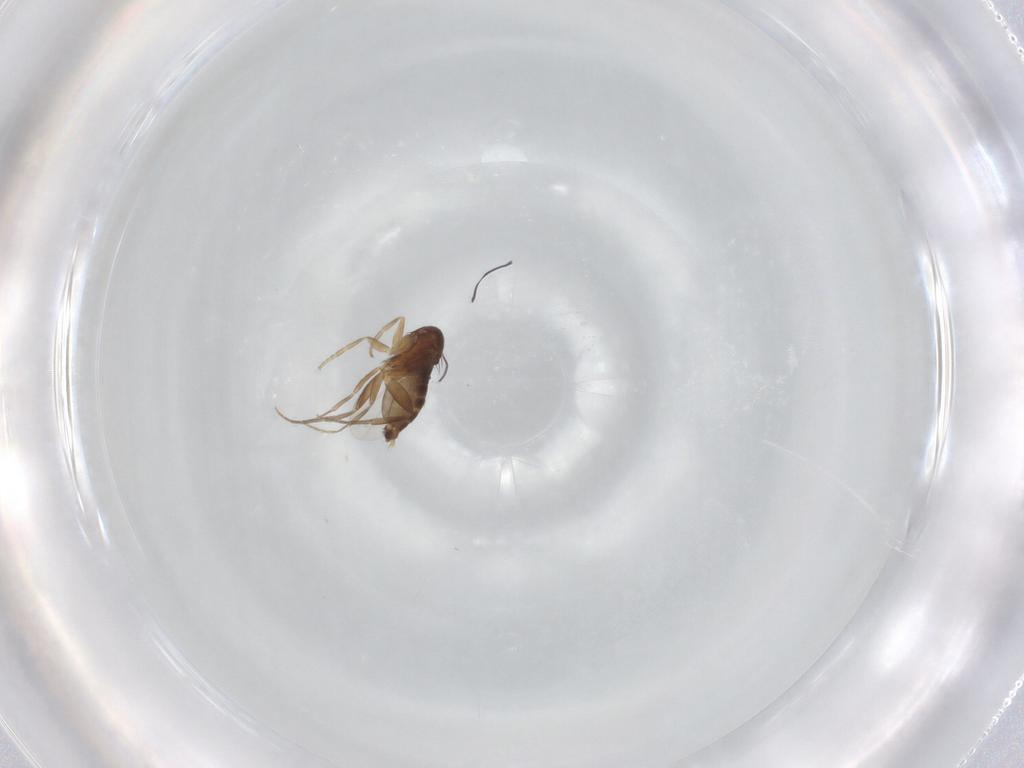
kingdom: Animalia
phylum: Arthropoda
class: Insecta
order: Diptera
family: Phoridae
